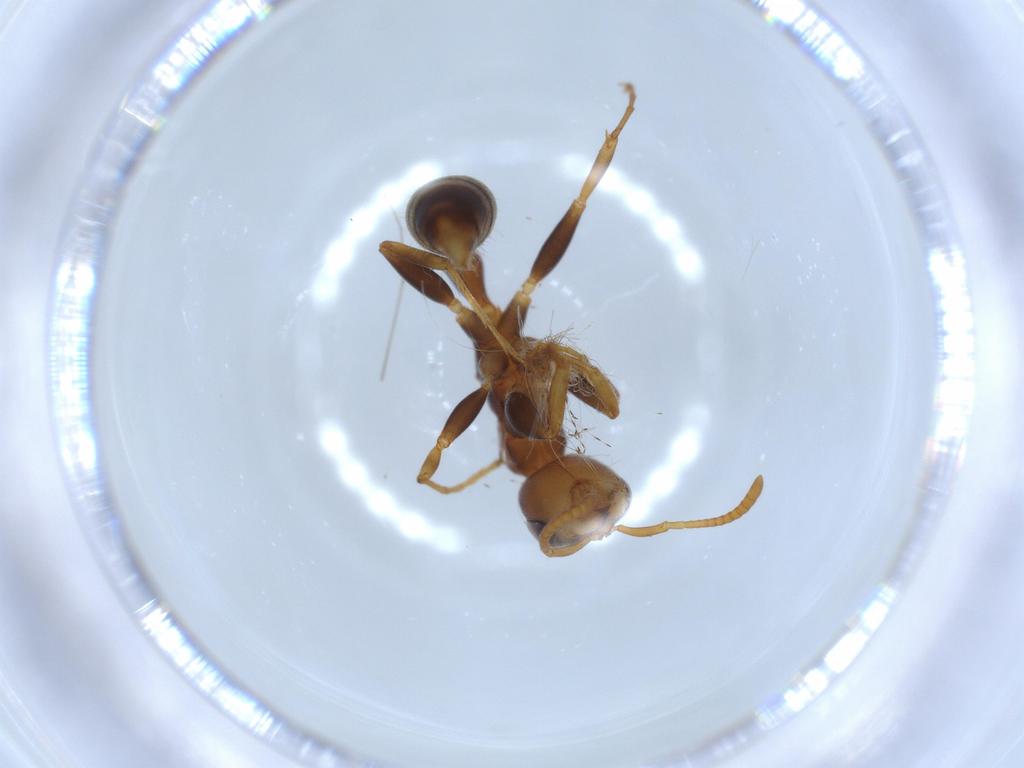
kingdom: Animalia
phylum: Arthropoda
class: Insecta
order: Hymenoptera
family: Formicidae
